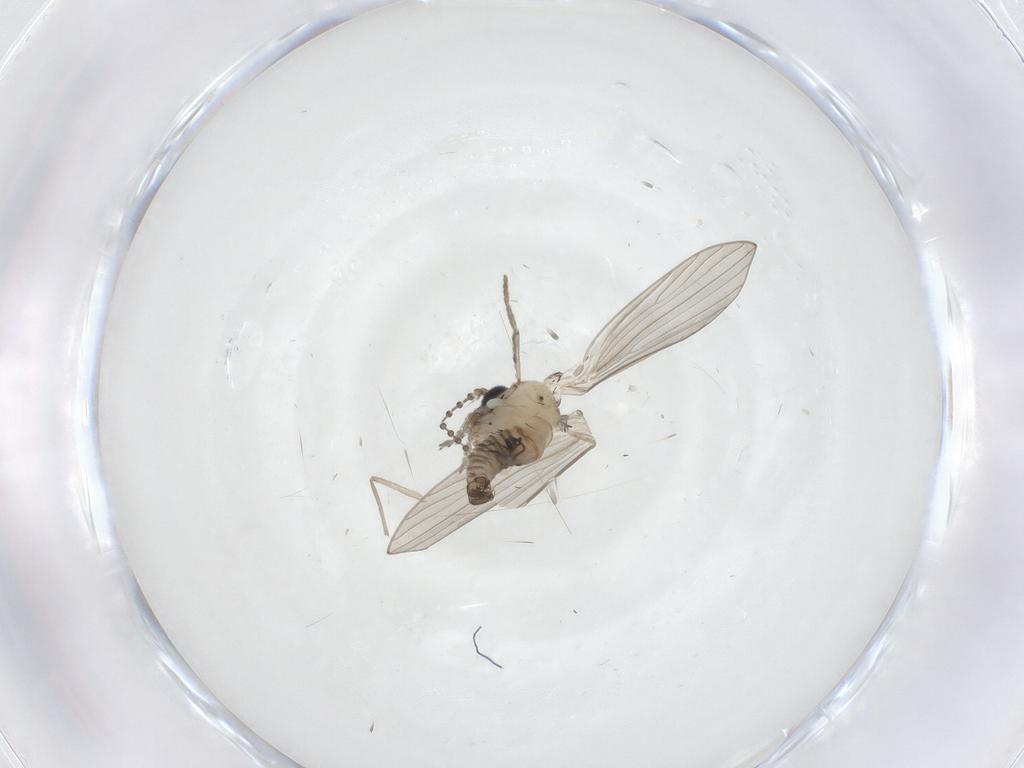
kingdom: Animalia
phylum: Arthropoda
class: Insecta
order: Diptera
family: Psychodidae
